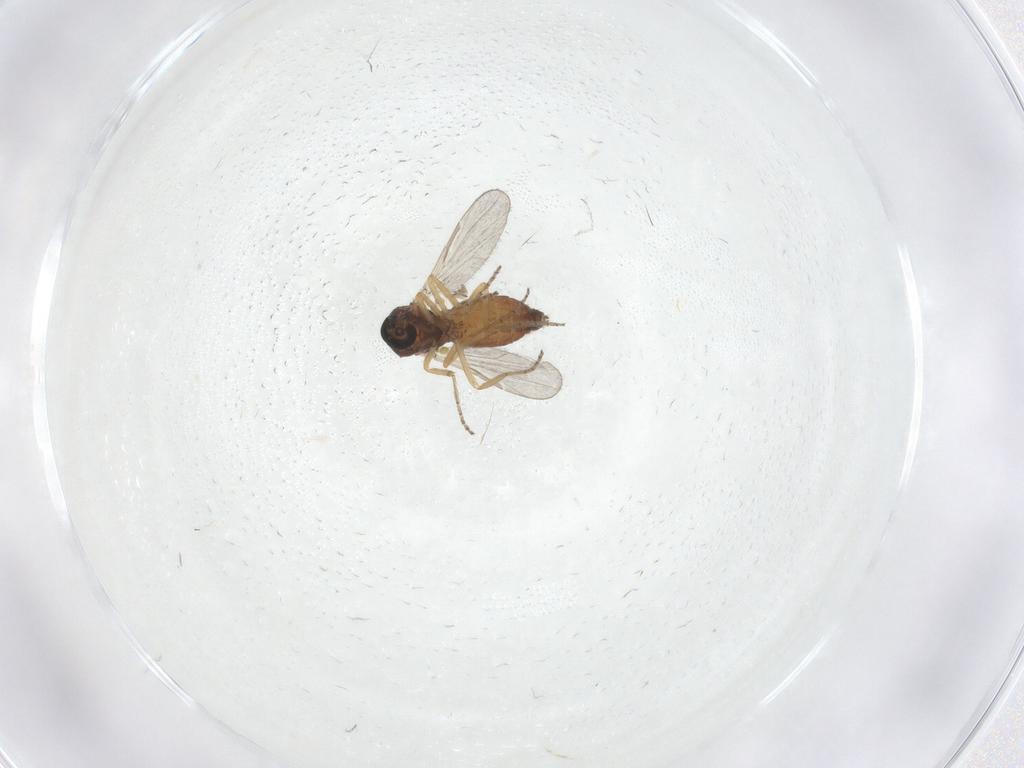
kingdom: Animalia
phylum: Arthropoda
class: Insecta
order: Diptera
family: Ceratopogonidae
